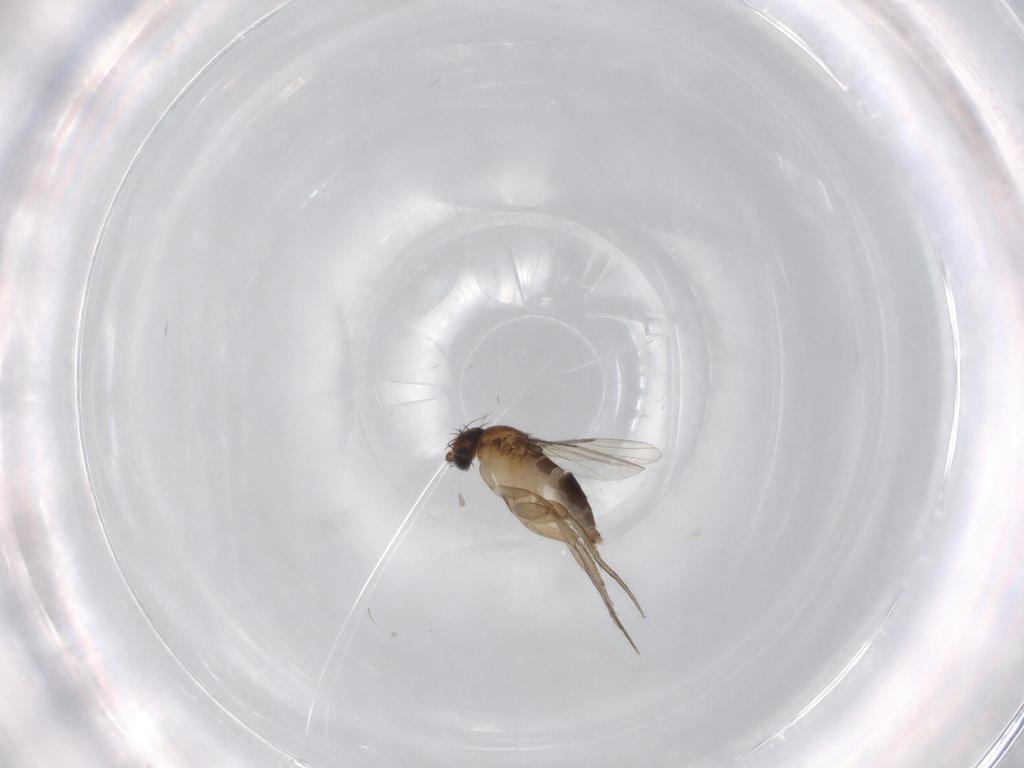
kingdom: Animalia
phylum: Arthropoda
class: Insecta
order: Diptera
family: Phoridae
